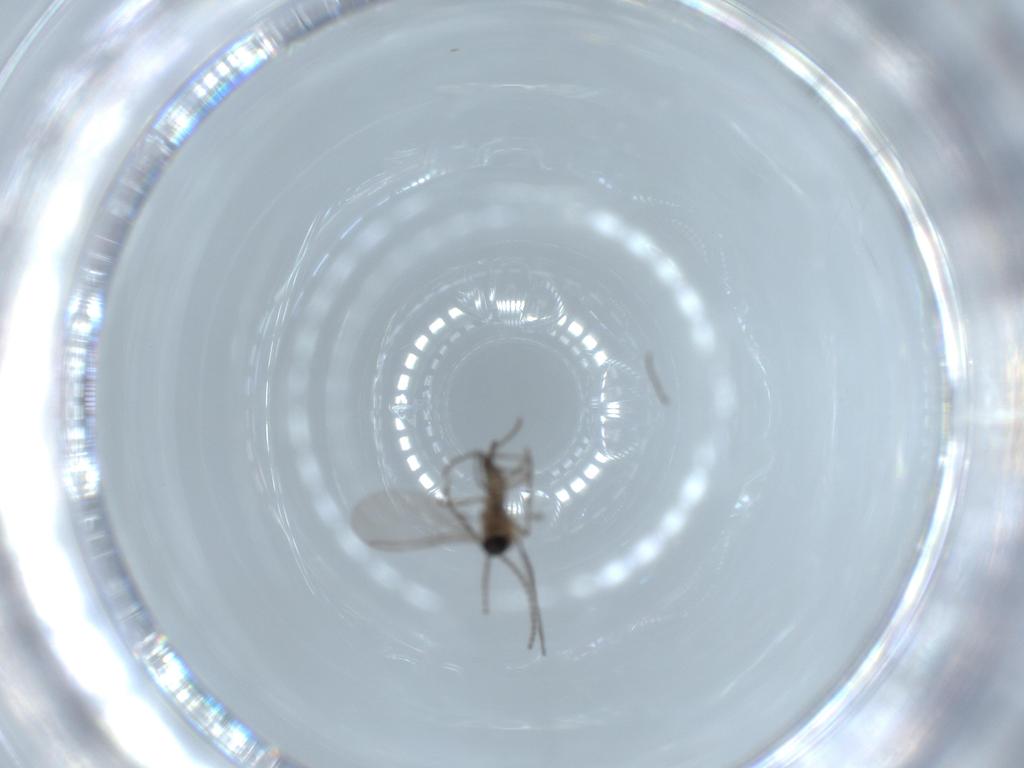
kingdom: Animalia
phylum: Arthropoda
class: Insecta
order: Diptera
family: Sciaridae
